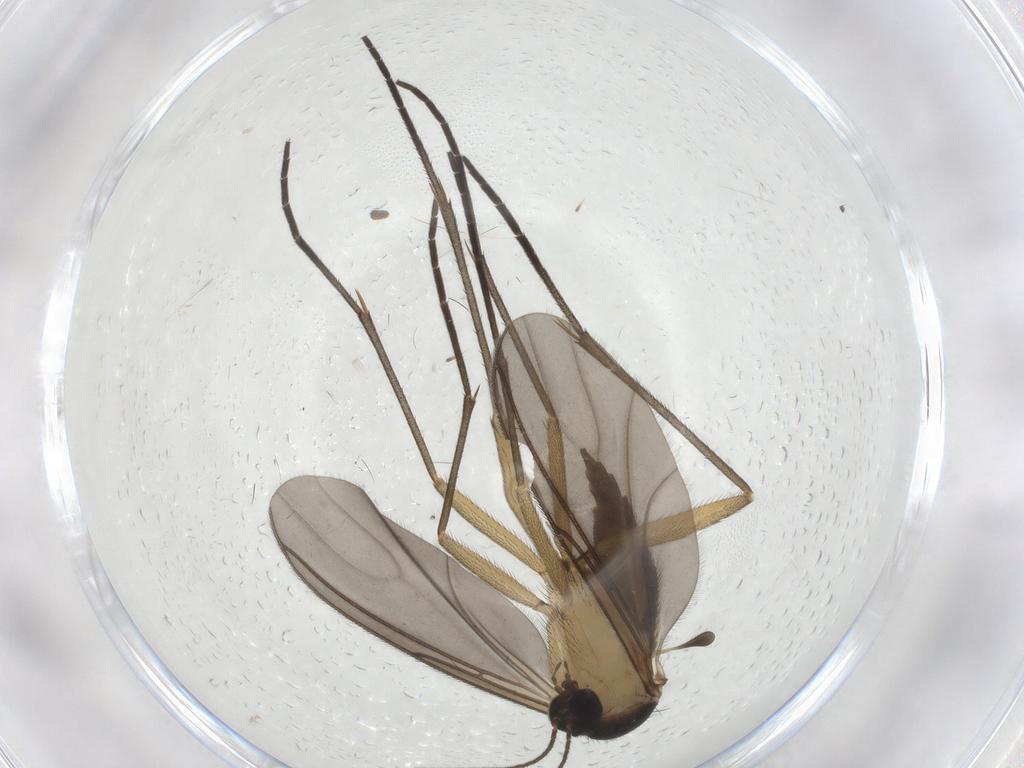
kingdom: Animalia
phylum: Arthropoda
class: Insecta
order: Diptera
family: Sciaridae
